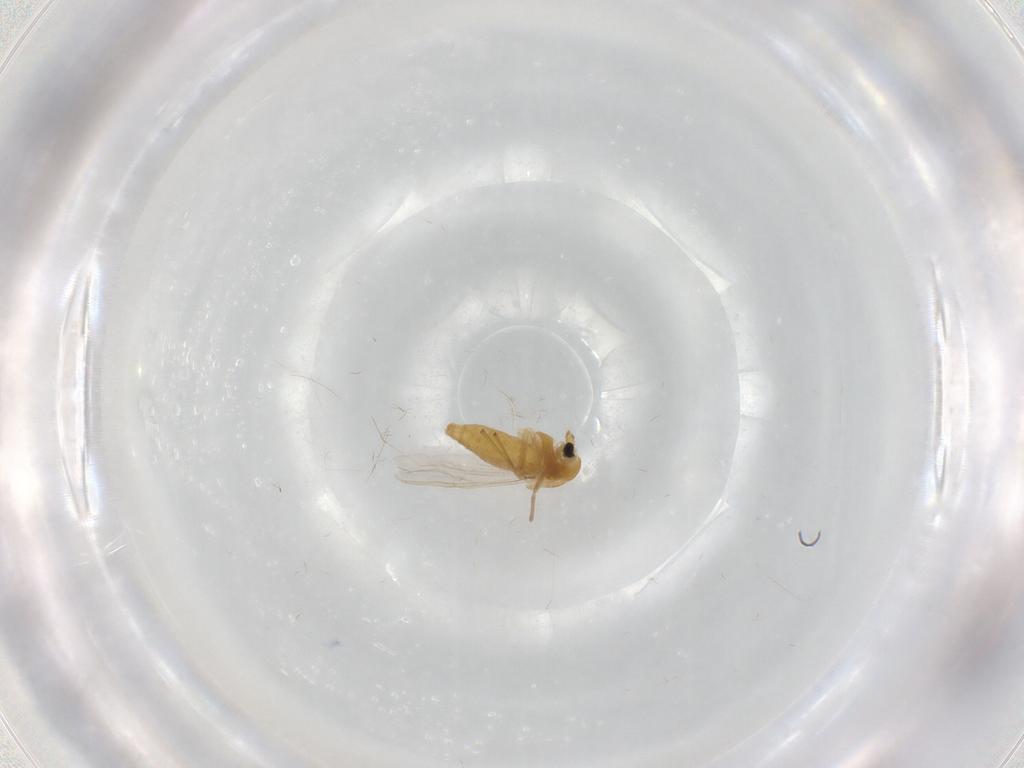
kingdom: Animalia
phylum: Arthropoda
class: Insecta
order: Diptera
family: Chironomidae
